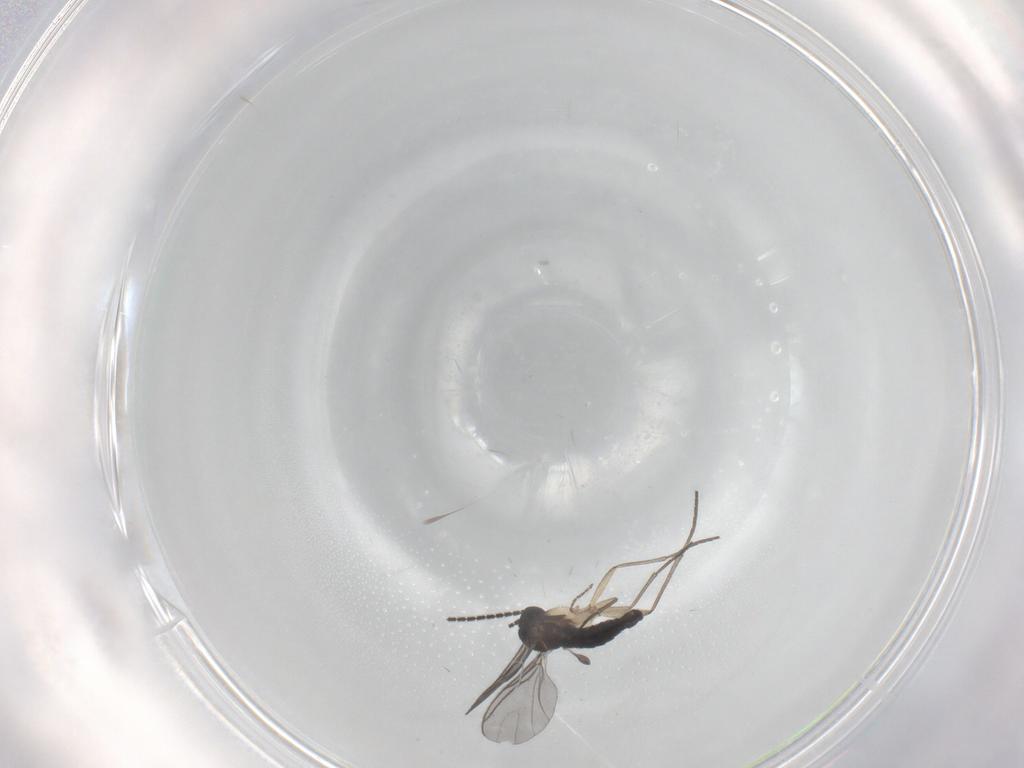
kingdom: Animalia
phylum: Arthropoda
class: Insecta
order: Diptera
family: Sciaridae
